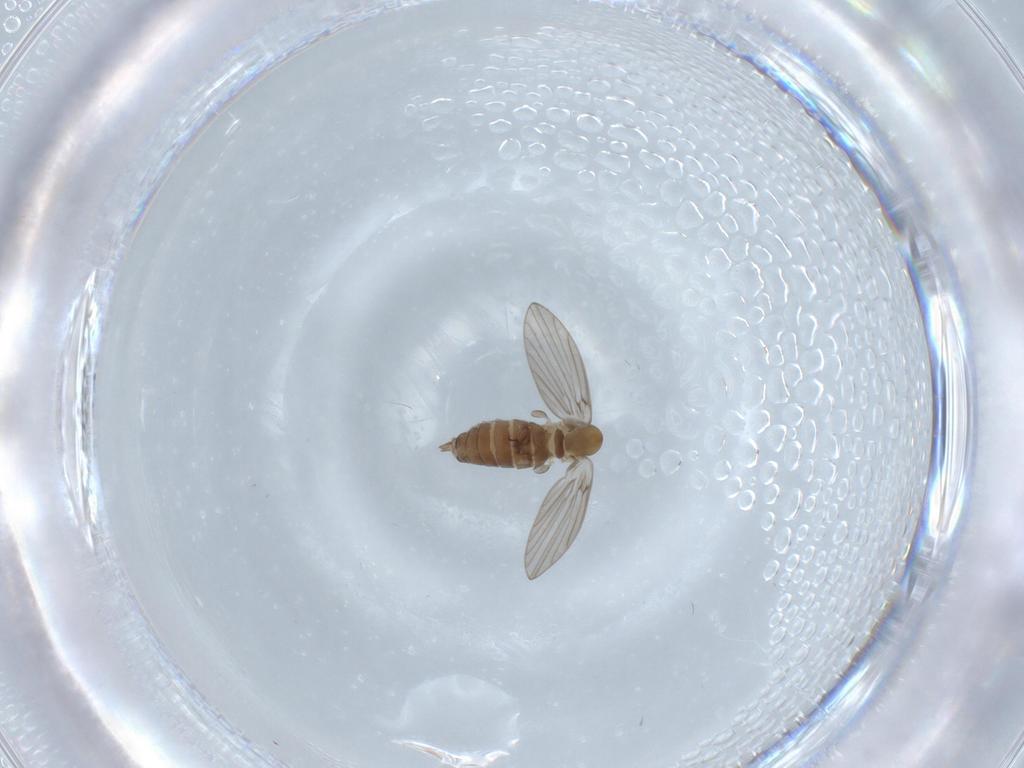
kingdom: Animalia
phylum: Arthropoda
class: Insecta
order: Diptera
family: Psychodidae
